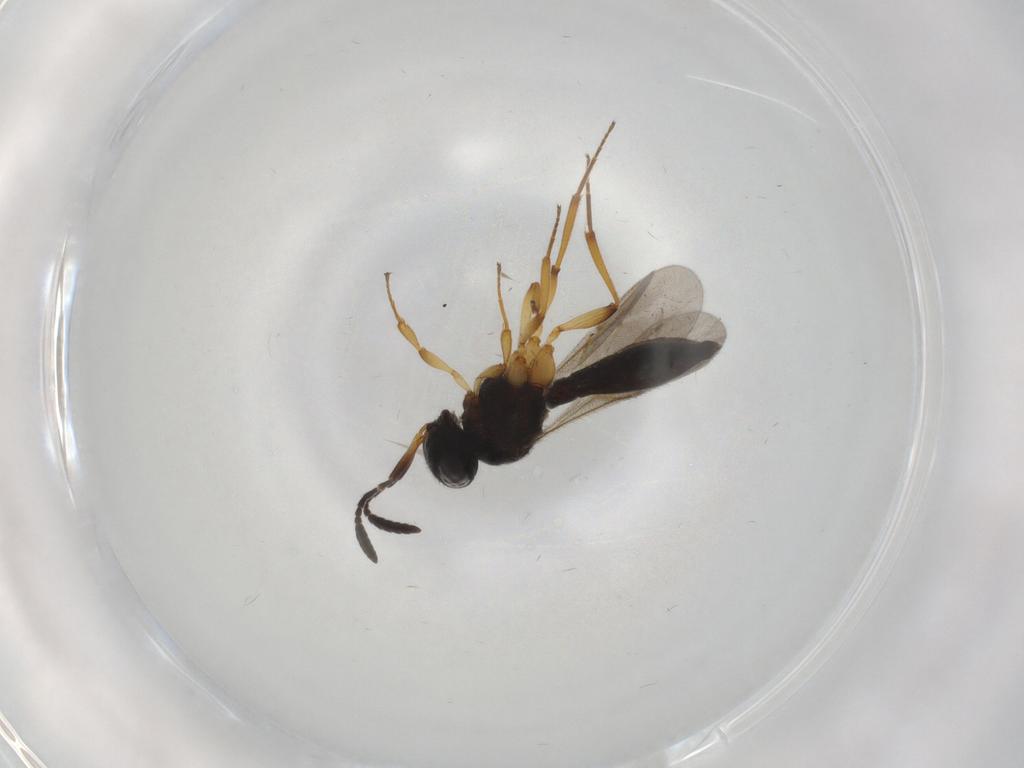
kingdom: Animalia
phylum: Arthropoda
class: Insecta
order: Hymenoptera
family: Scelionidae
